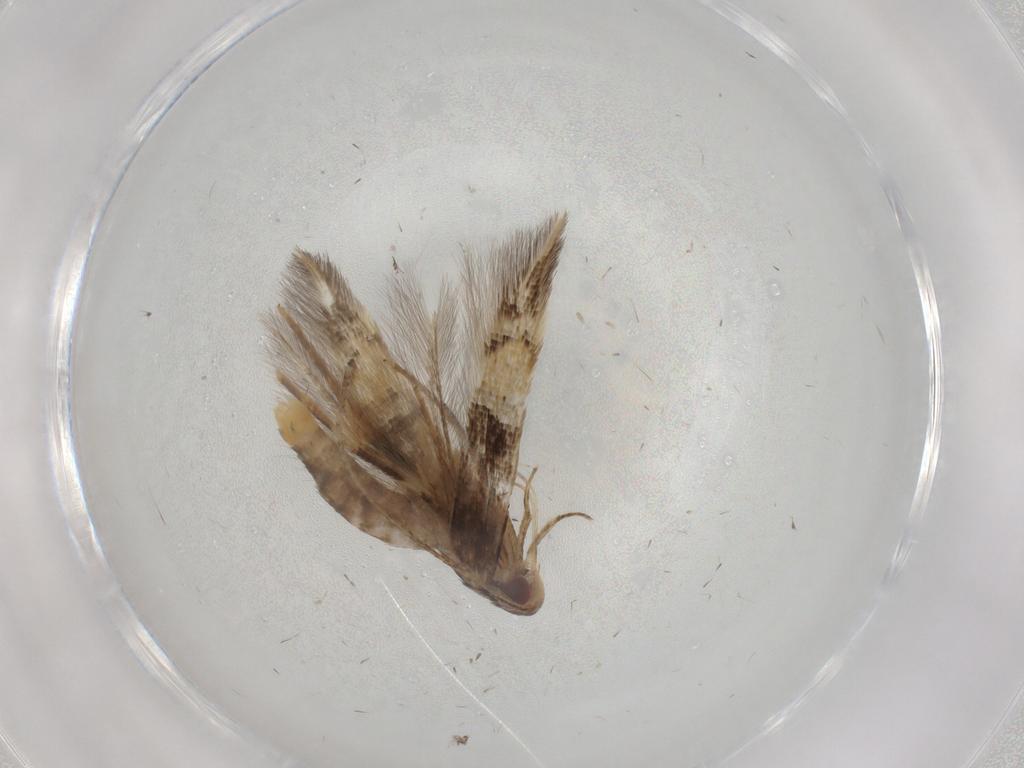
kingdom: Animalia
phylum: Arthropoda
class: Insecta
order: Lepidoptera
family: Cosmopterigidae
